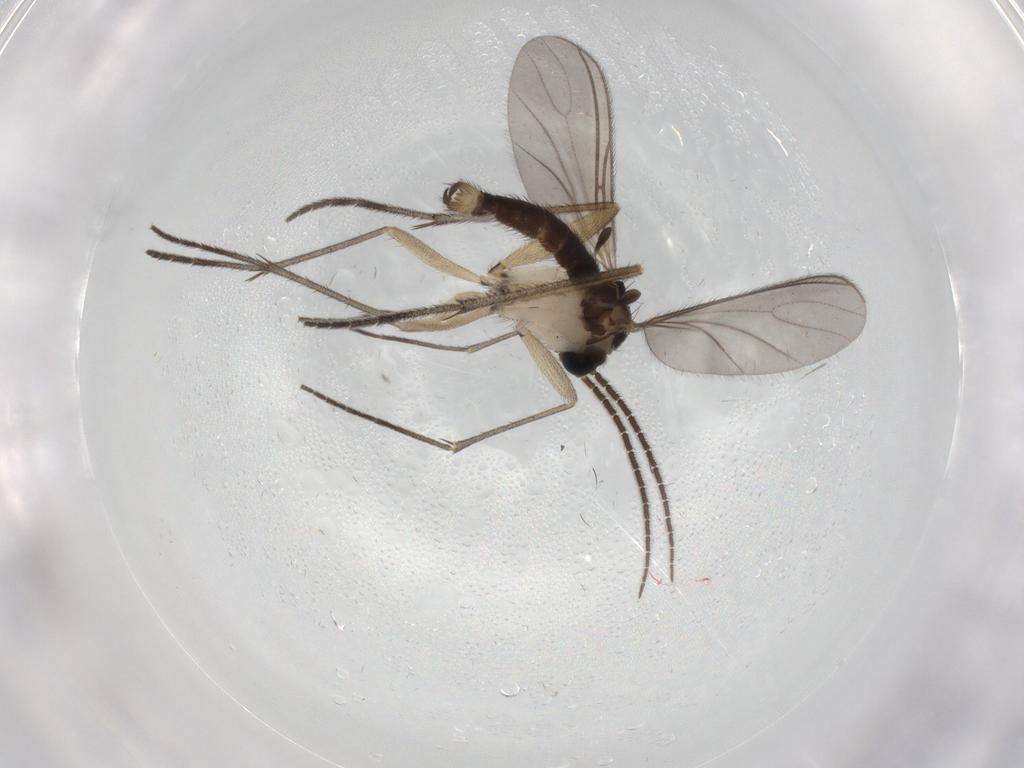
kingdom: Animalia
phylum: Arthropoda
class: Insecta
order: Diptera
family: Sciaridae
